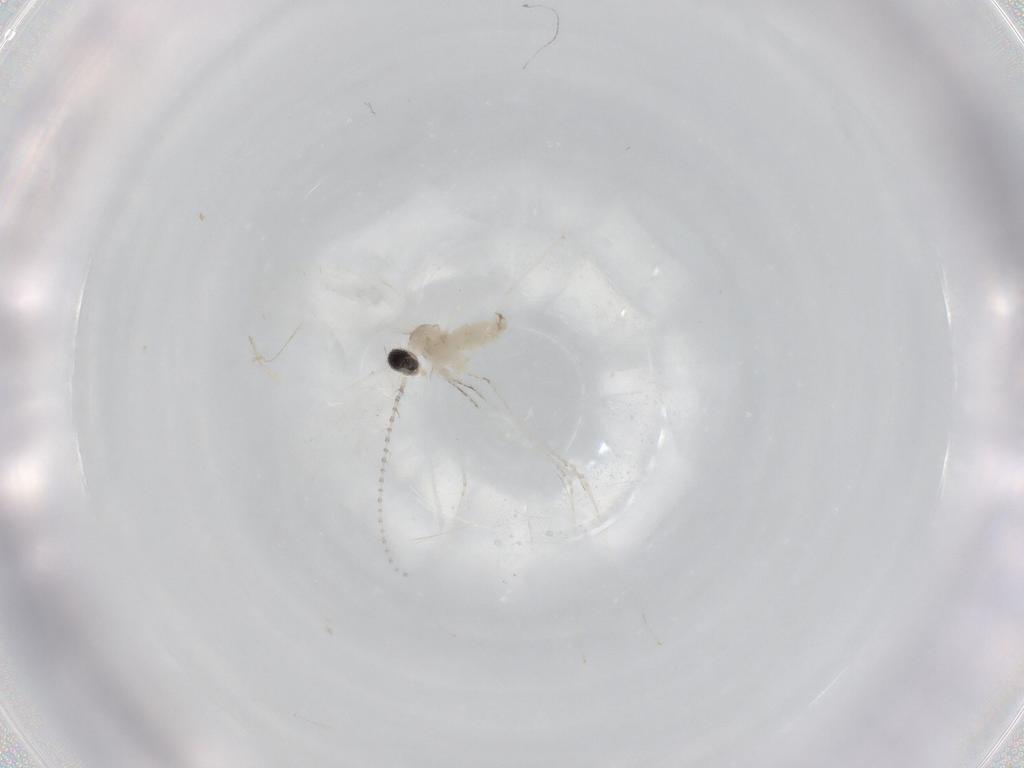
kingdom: Animalia
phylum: Arthropoda
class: Insecta
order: Diptera
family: Cecidomyiidae
